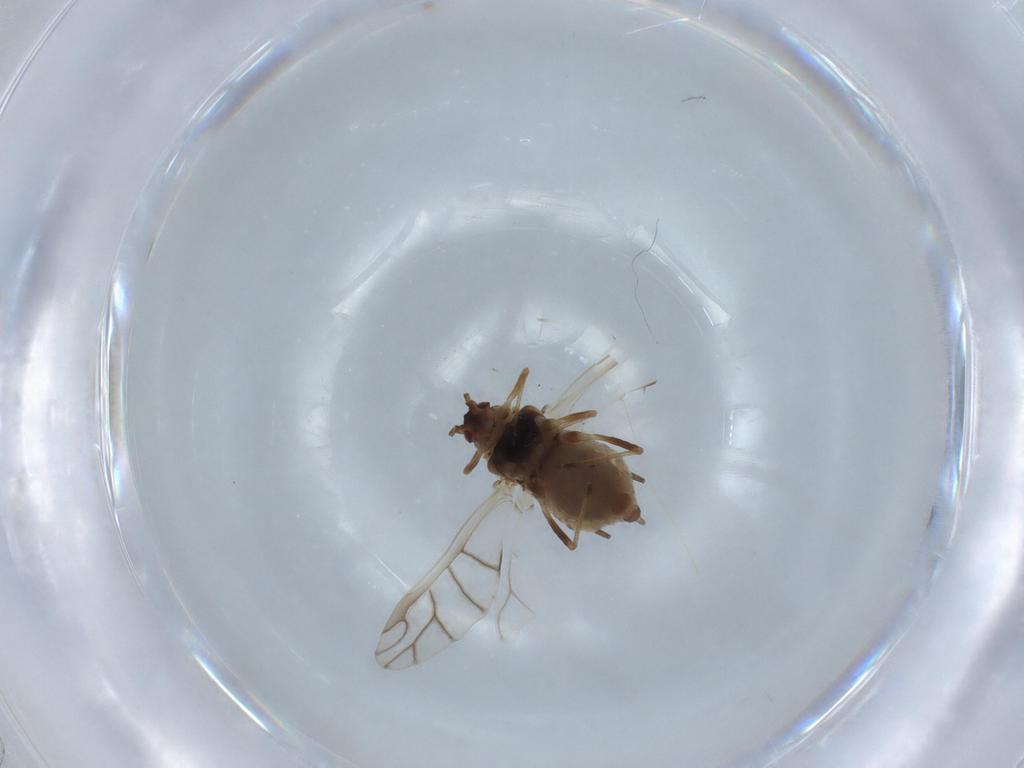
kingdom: Animalia
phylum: Arthropoda
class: Insecta
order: Hemiptera
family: Aphididae
